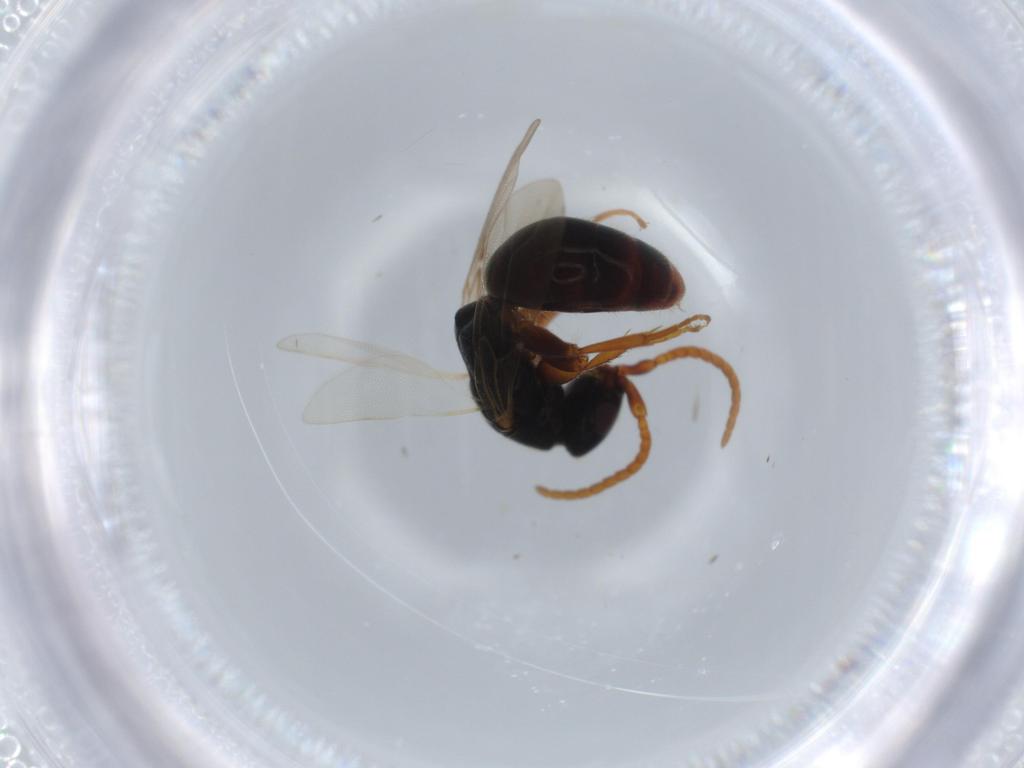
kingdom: Animalia
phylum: Arthropoda
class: Insecta
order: Hymenoptera
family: Bethylidae
